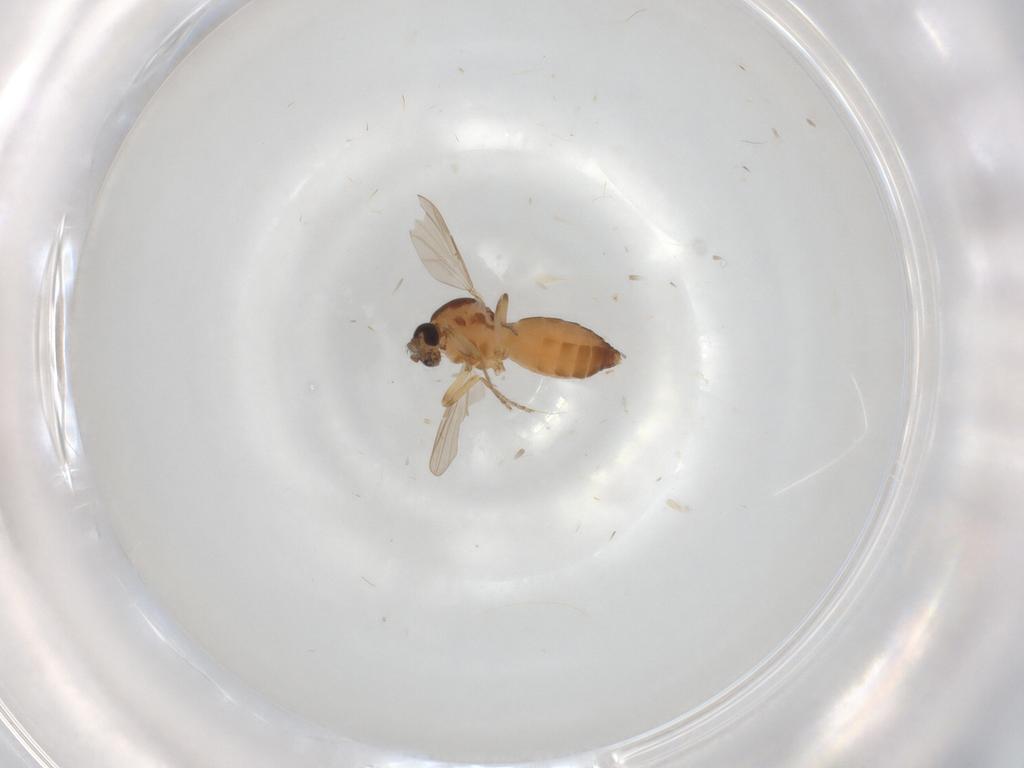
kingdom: Animalia
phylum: Arthropoda
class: Insecta
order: Diptera
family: Ceratopogonidae
